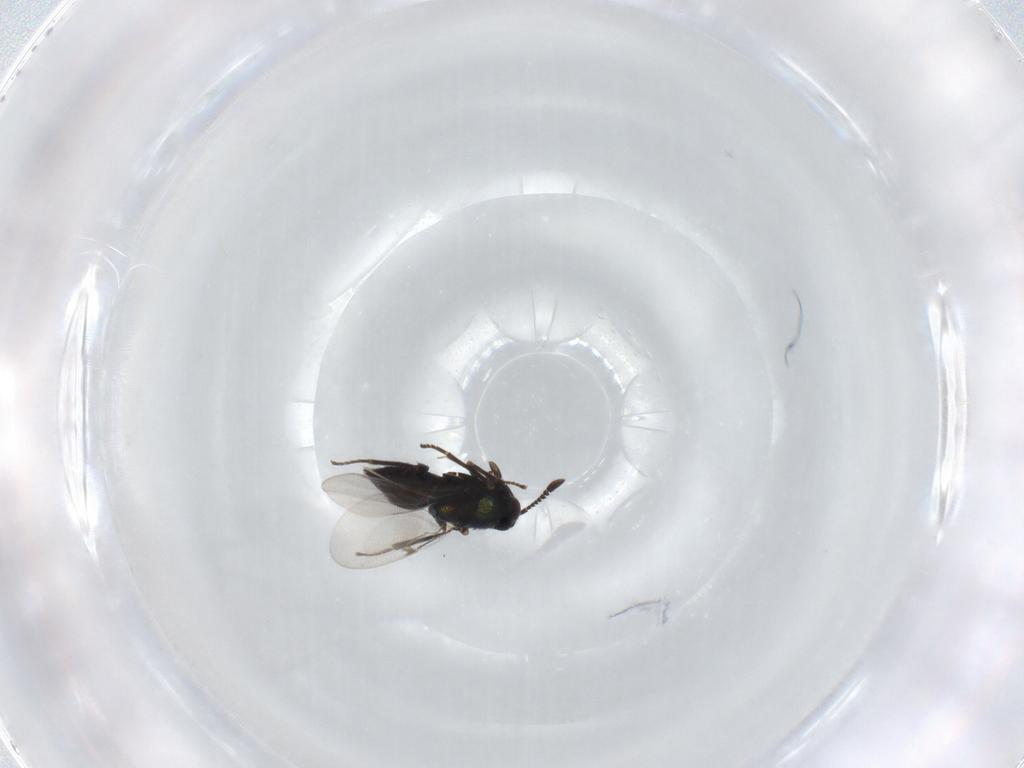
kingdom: Animalia
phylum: Arthropoda
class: Insecta
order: Hymenoptera
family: Encyrtidae
